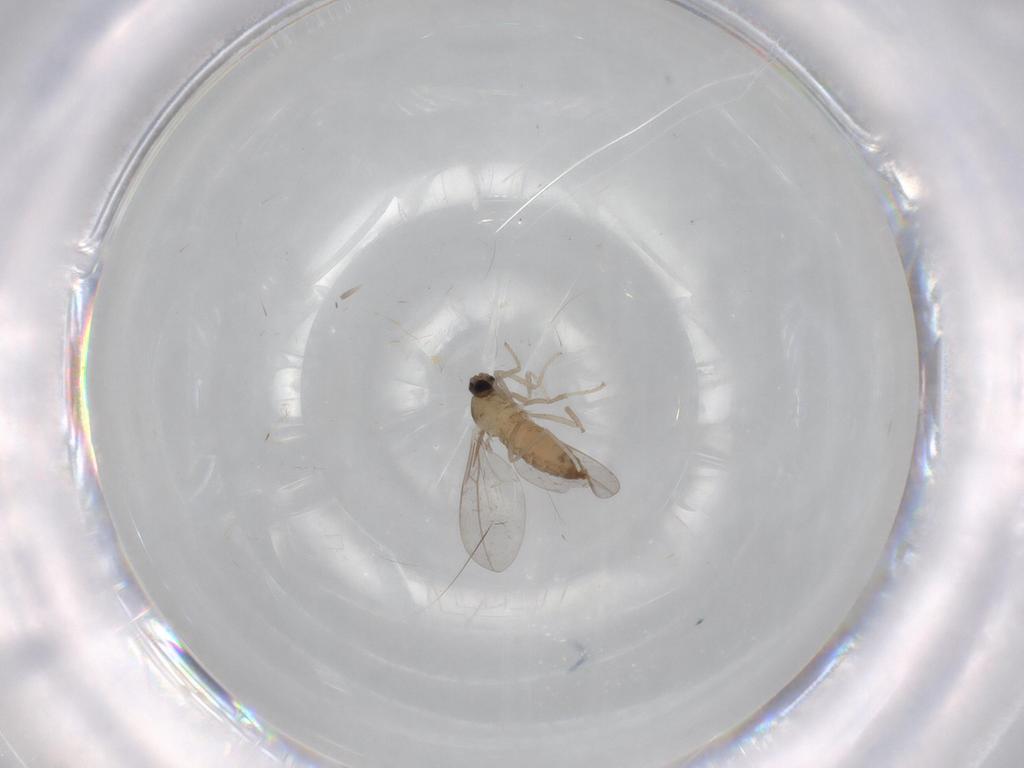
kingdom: Animalia
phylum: Arthropoda
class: Insecta
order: Diptera
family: Cecidomyiidae
